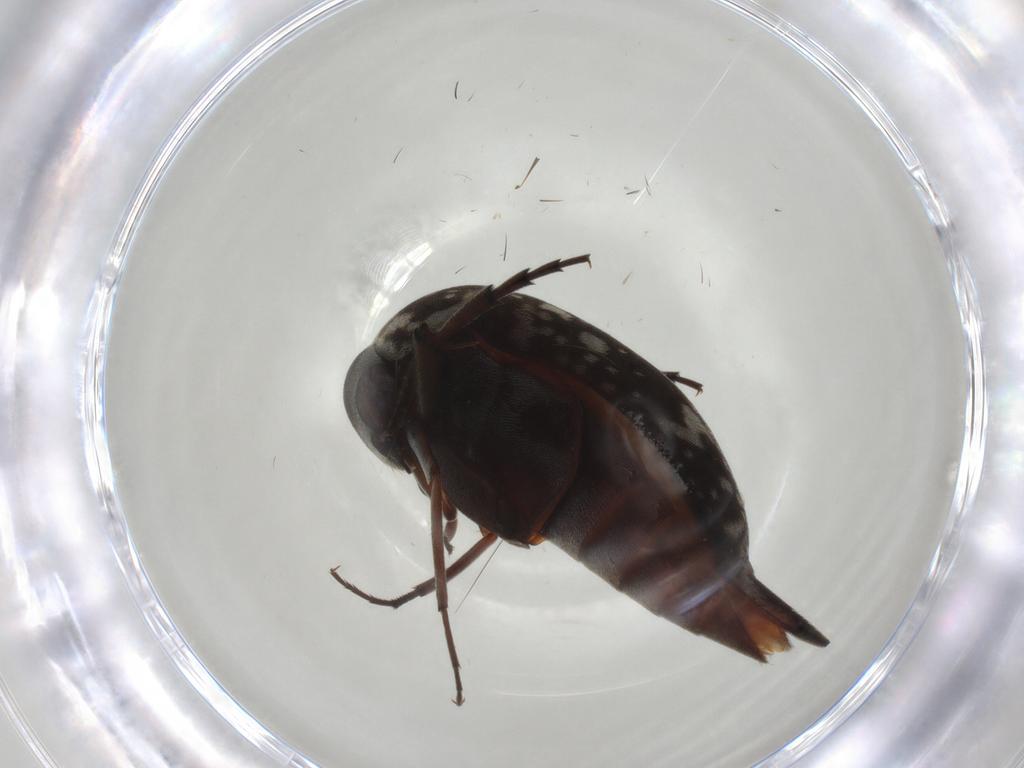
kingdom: Animalia
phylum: Arthropoda
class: Insecta
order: Coleoptera
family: Mordellidae
